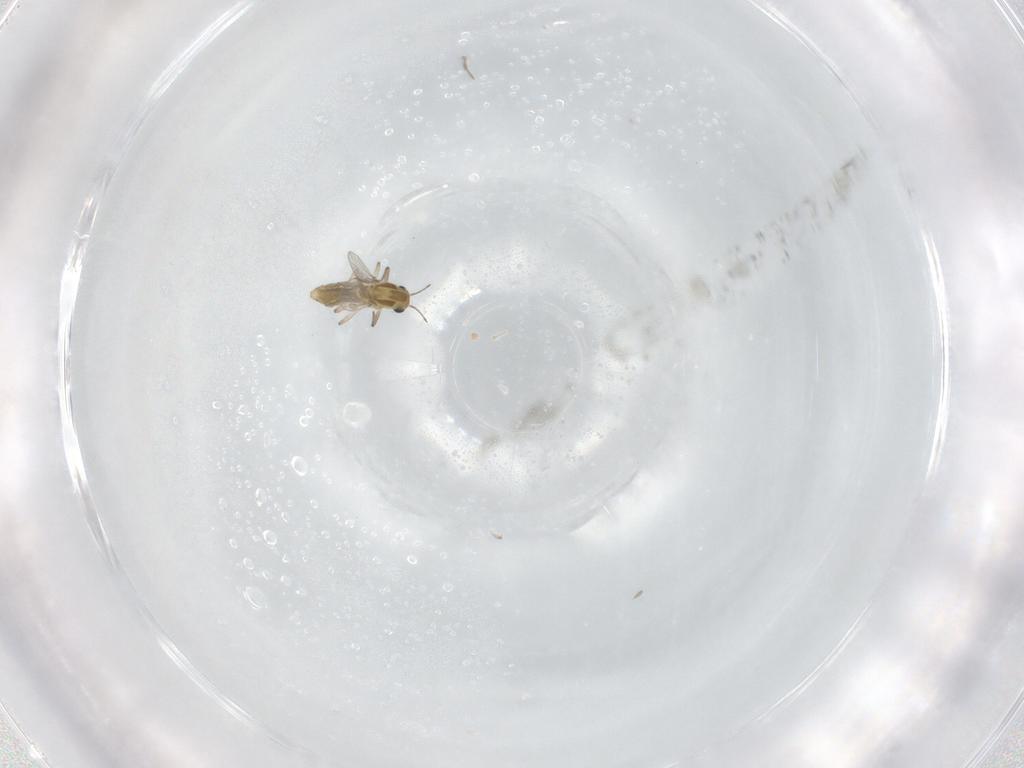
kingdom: Animalia
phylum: Arthropoda
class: Insecta
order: Diptera
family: Chironomidae
